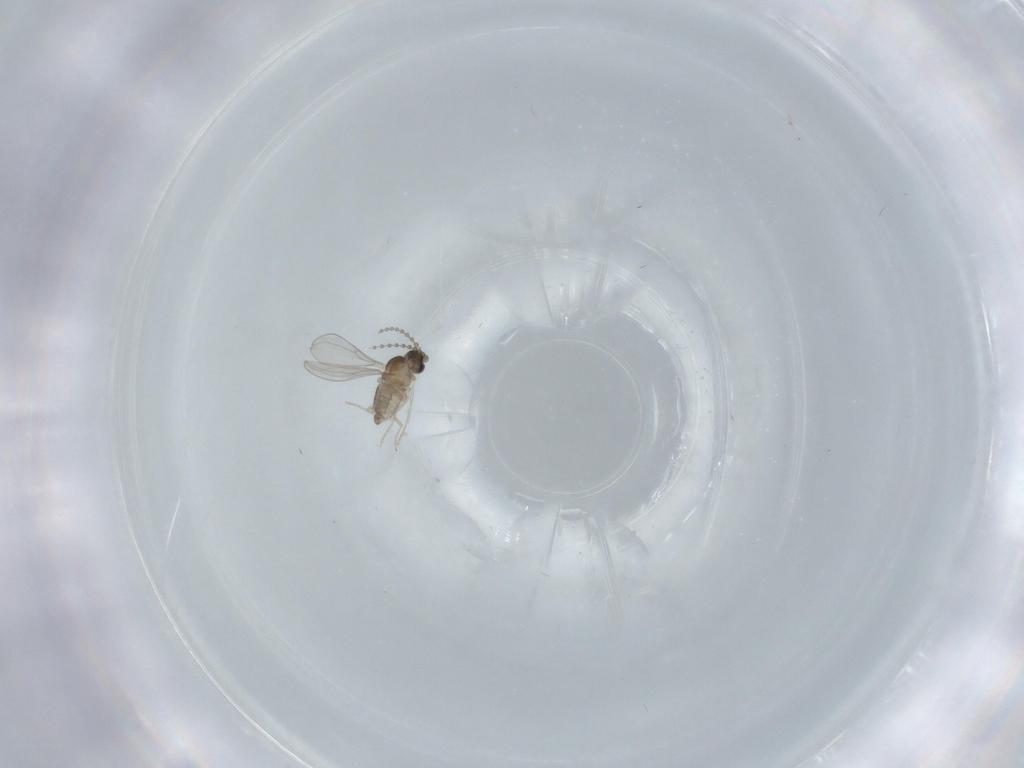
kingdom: Animalia
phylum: Arthropoda
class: Insecta
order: Diptera
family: Cecidomyiidae
